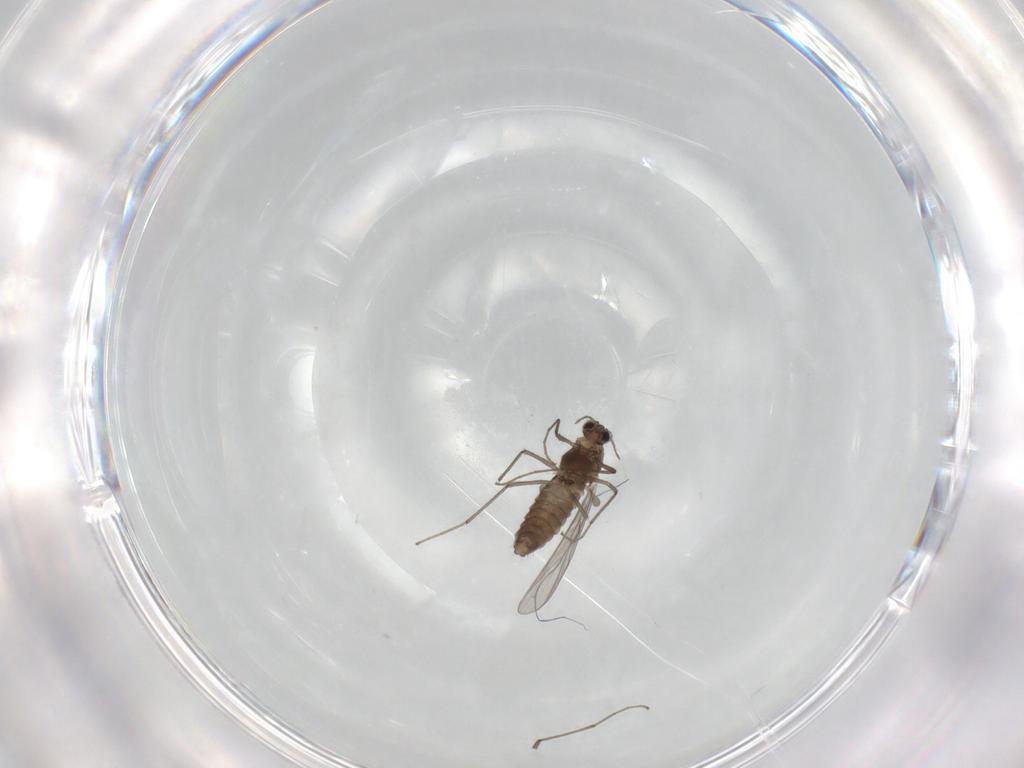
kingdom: Animalia
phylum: Arthropoda
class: Insecta
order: Diptera
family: Chironomidae
